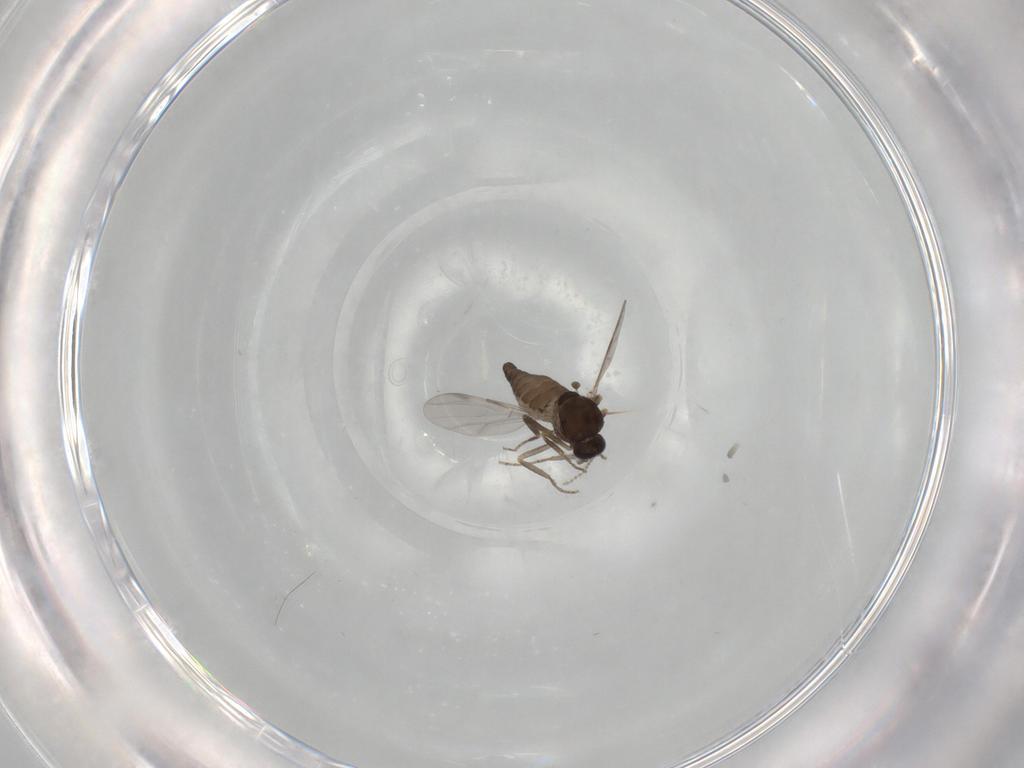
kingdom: Animalia
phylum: Arthropoda
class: Insecta
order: Diptera
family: Ceratopogonidae
